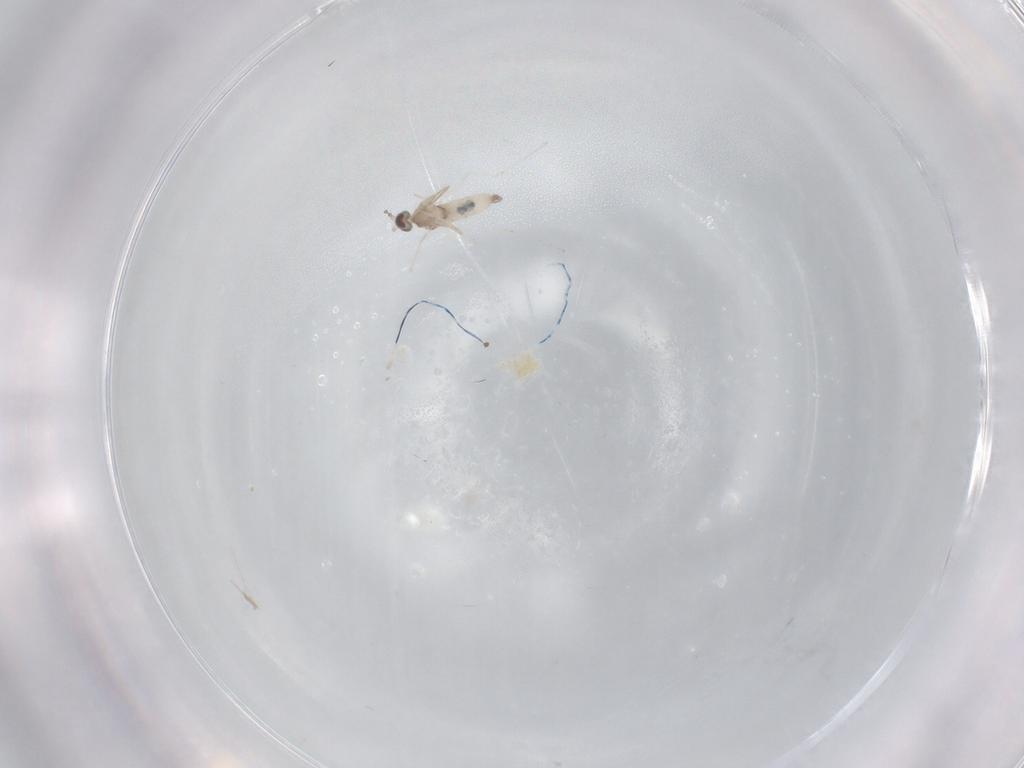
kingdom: Animalia
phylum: Arthropoda
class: Insecta
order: Diptera
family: Cecidomyiidae
